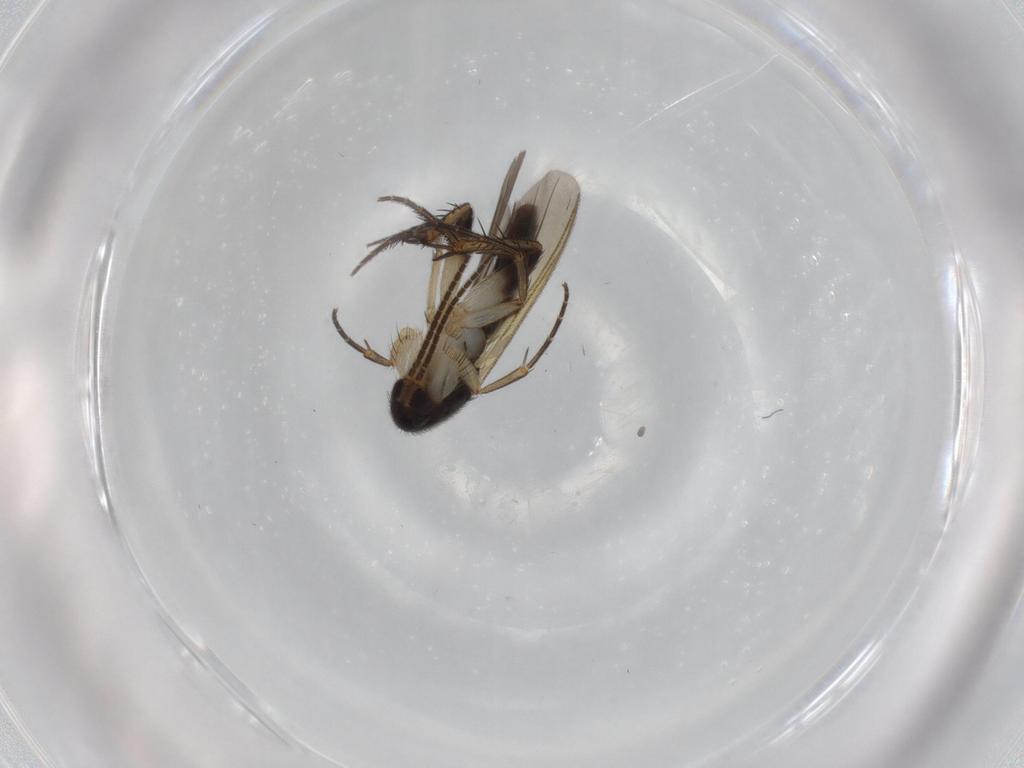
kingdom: Animalia
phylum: Arthropoda
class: Insecta
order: Diptera
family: Mycetophilidae
